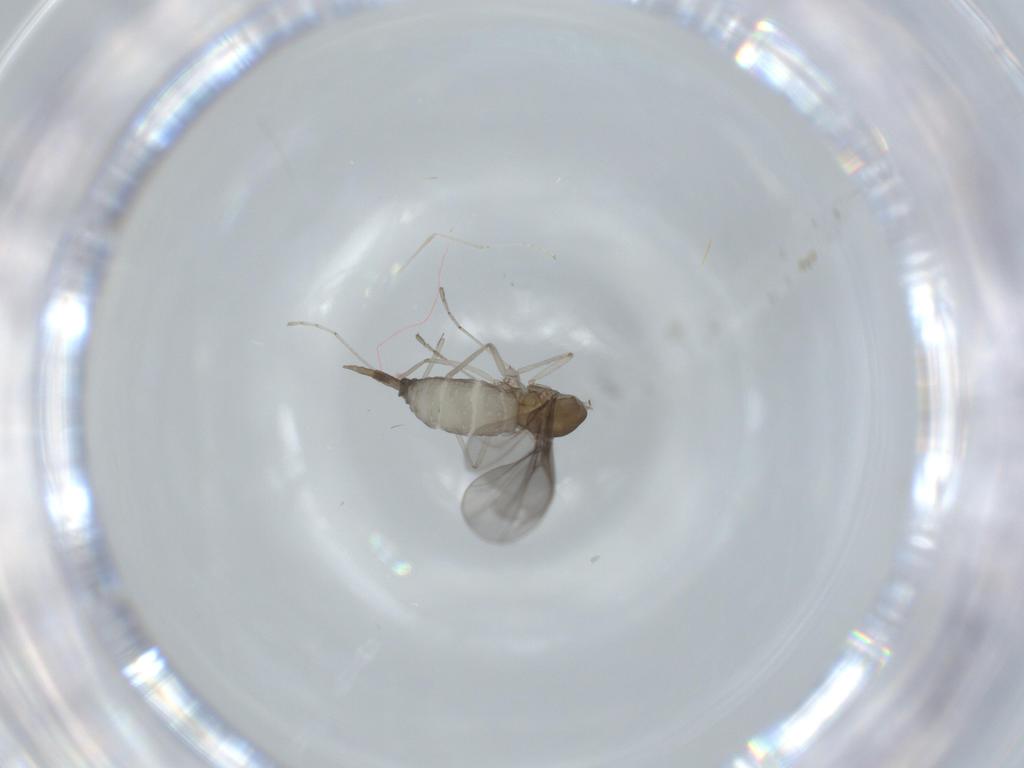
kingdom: Animalia
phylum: Arthropoda
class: Insecta
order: Diptera
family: Cecidomyiidae
